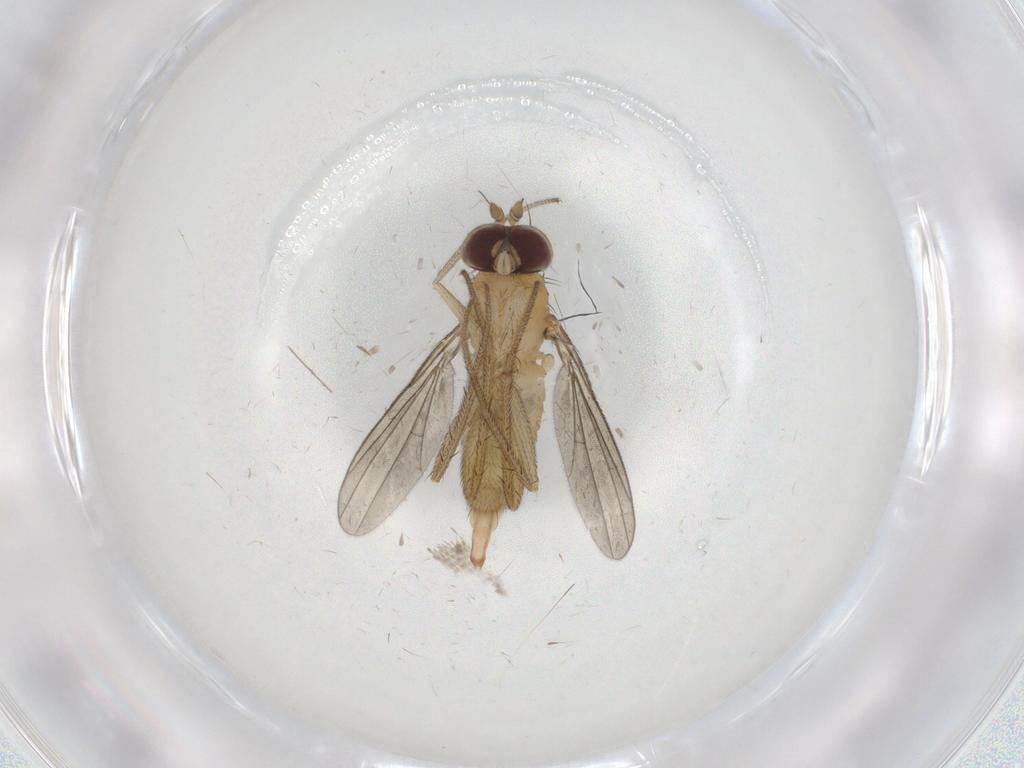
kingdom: Animalia
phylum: Arthropoda
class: Insecta
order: Diptera
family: Dolichopodidae
